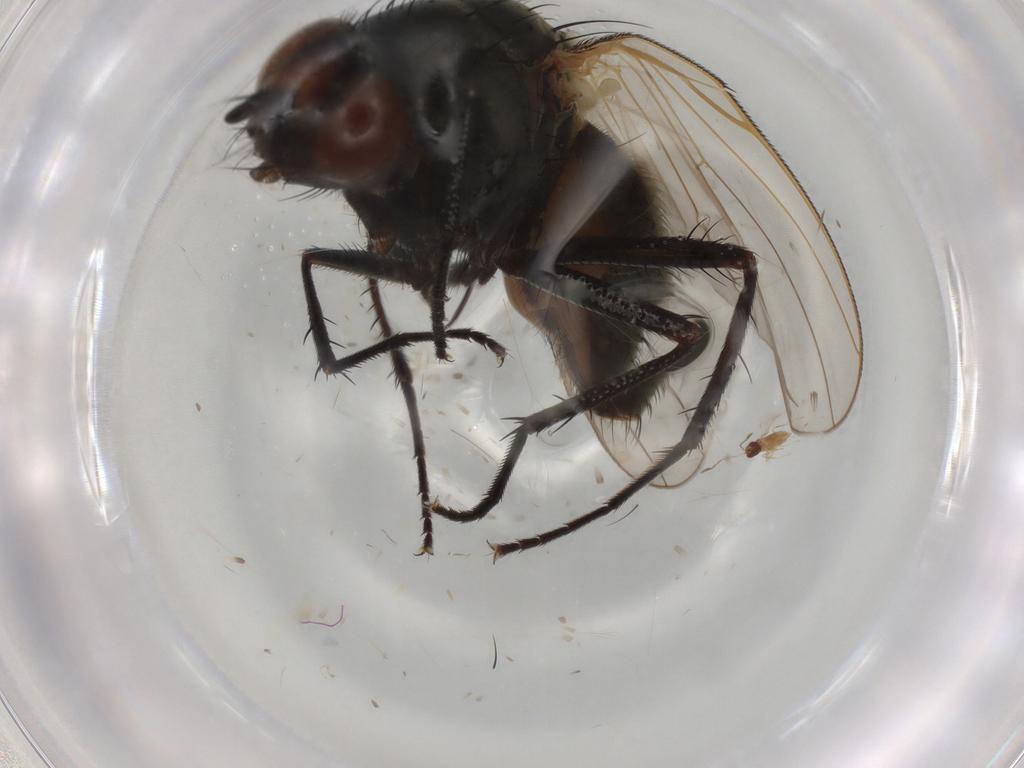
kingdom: Animalia
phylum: Arthropoda
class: Insecta
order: Diptera
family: Anthomyiidae
